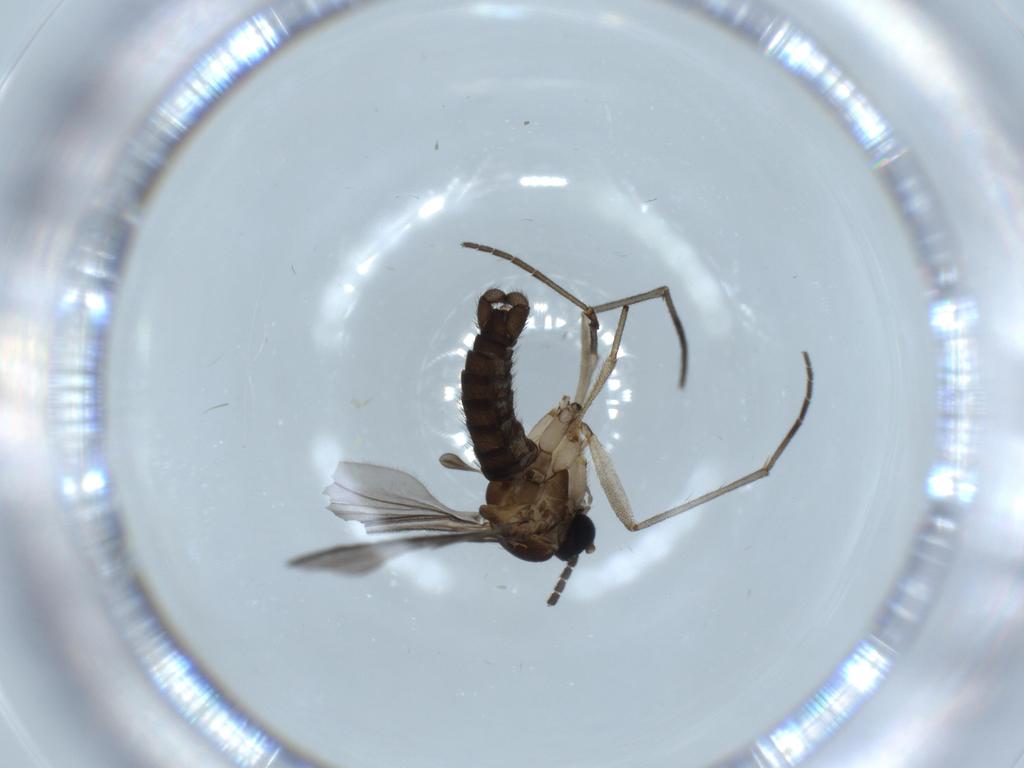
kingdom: Animalia
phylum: Arthropoda
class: Insecta
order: Diptera
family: Sciaridae
